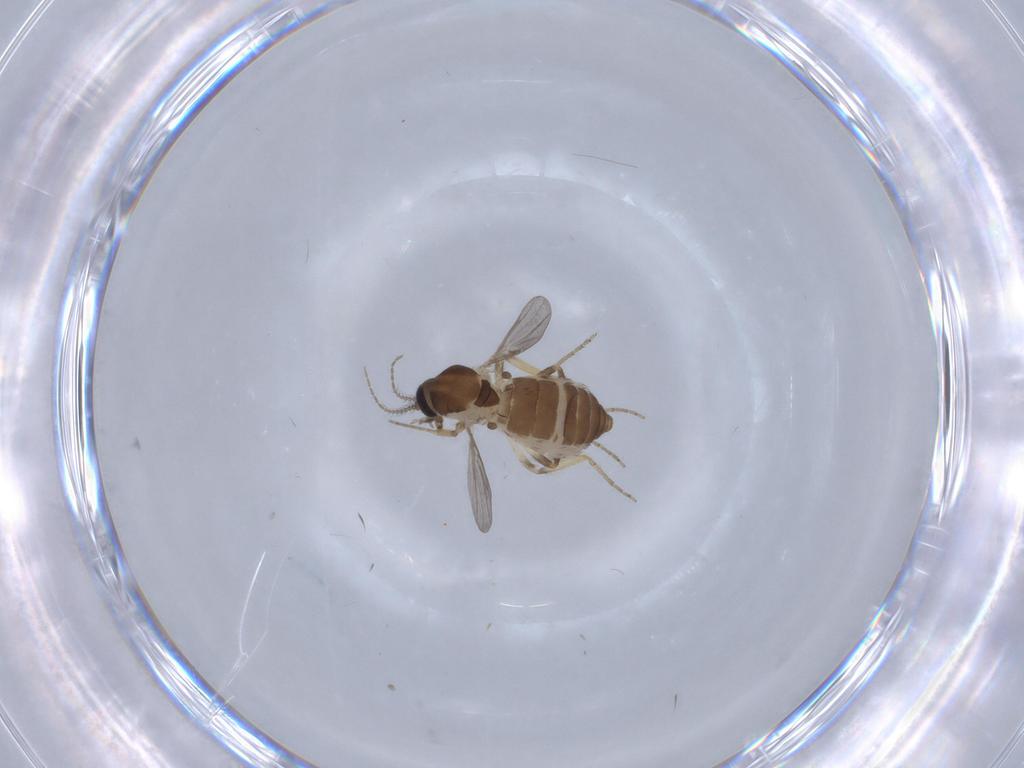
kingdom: Animalia
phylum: Arthropoda
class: Insecta
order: Diptera
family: Ceratopogonidae
